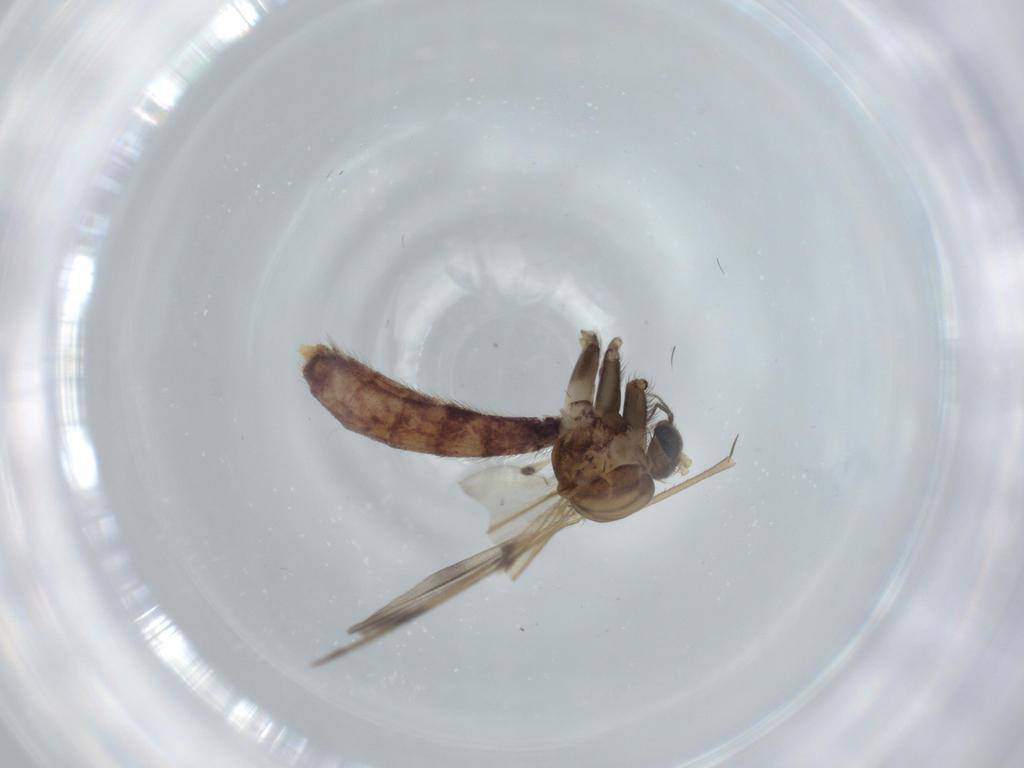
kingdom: Animalia
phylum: Arthropoda
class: Insecta
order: Diptera
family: Mycetophilidae
